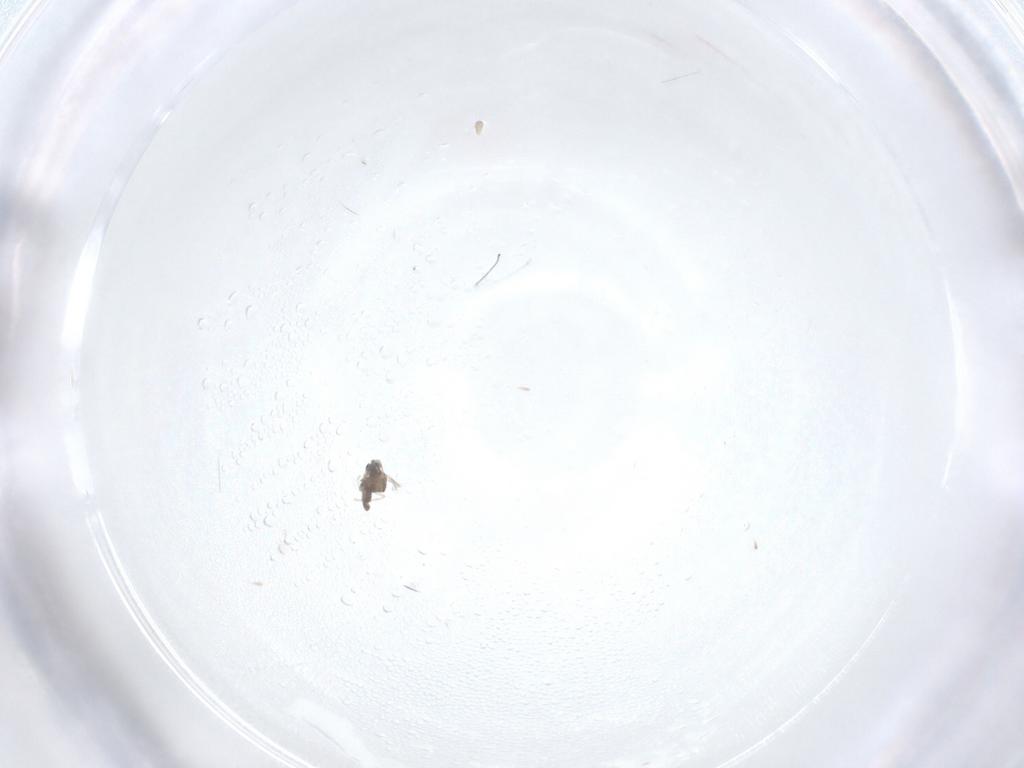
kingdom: Animalia
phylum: Arthropoda
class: Insecta
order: Diptera
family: Cecidomyiidae
